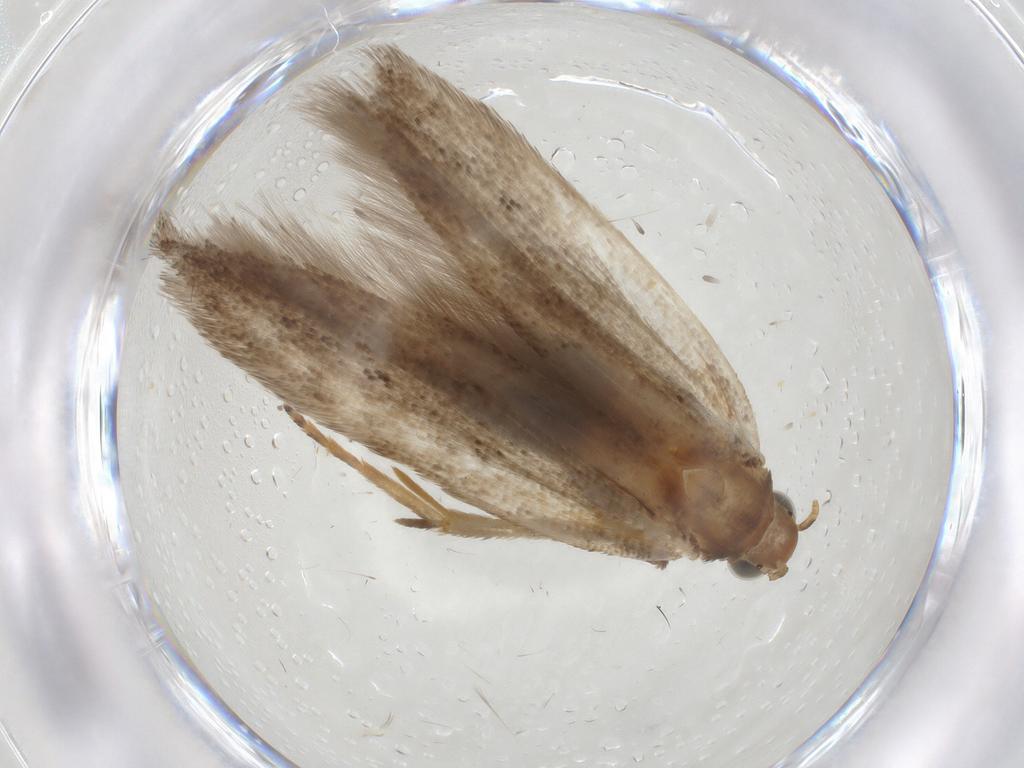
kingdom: Animalia
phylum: Arthropoda
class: Insecta
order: Lepidoptera
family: Gelechiidae
